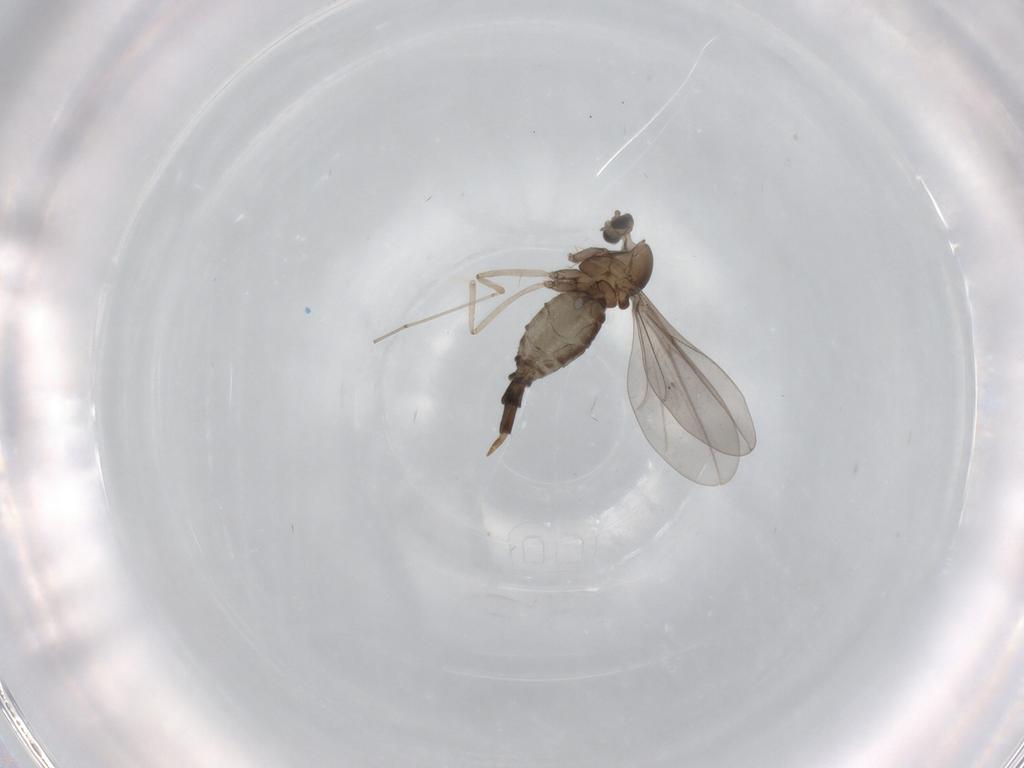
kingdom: Animalia
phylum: Arthropoda
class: Insecta
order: Diptera
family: Cecidomyiidae
